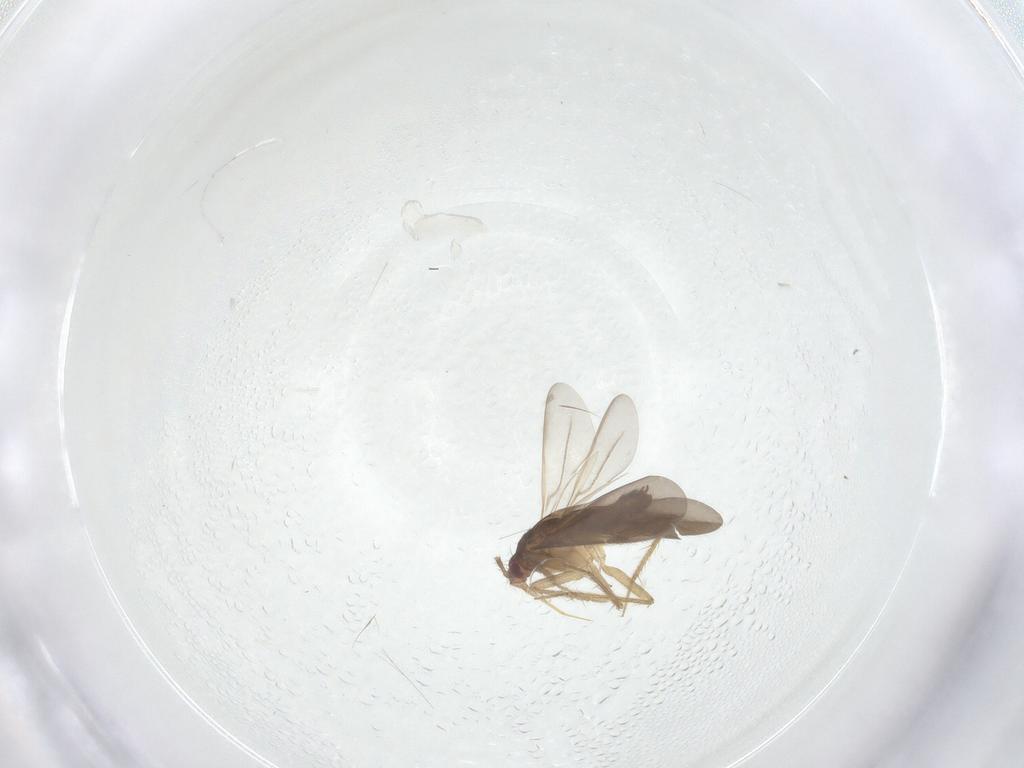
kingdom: Animalia
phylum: Arthropoda
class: Insecta
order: Hemiptera
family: Ceratocombidae
